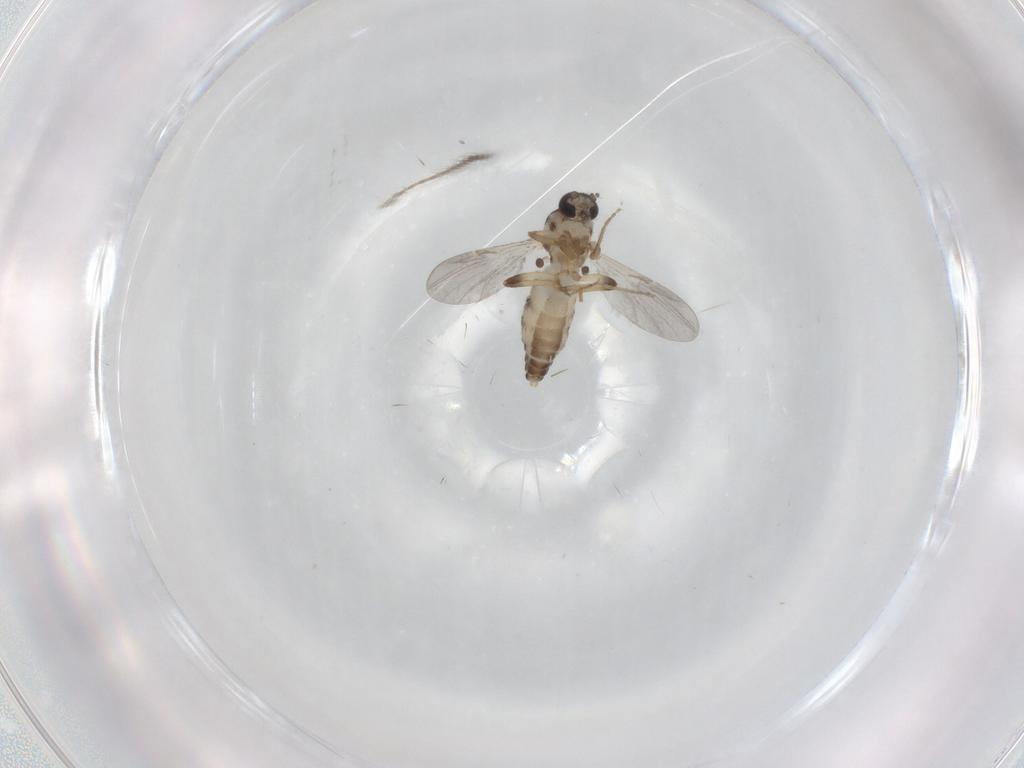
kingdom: Animalia
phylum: Arthropoda
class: Insecta
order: Diptera
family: Ceratopogonidae
